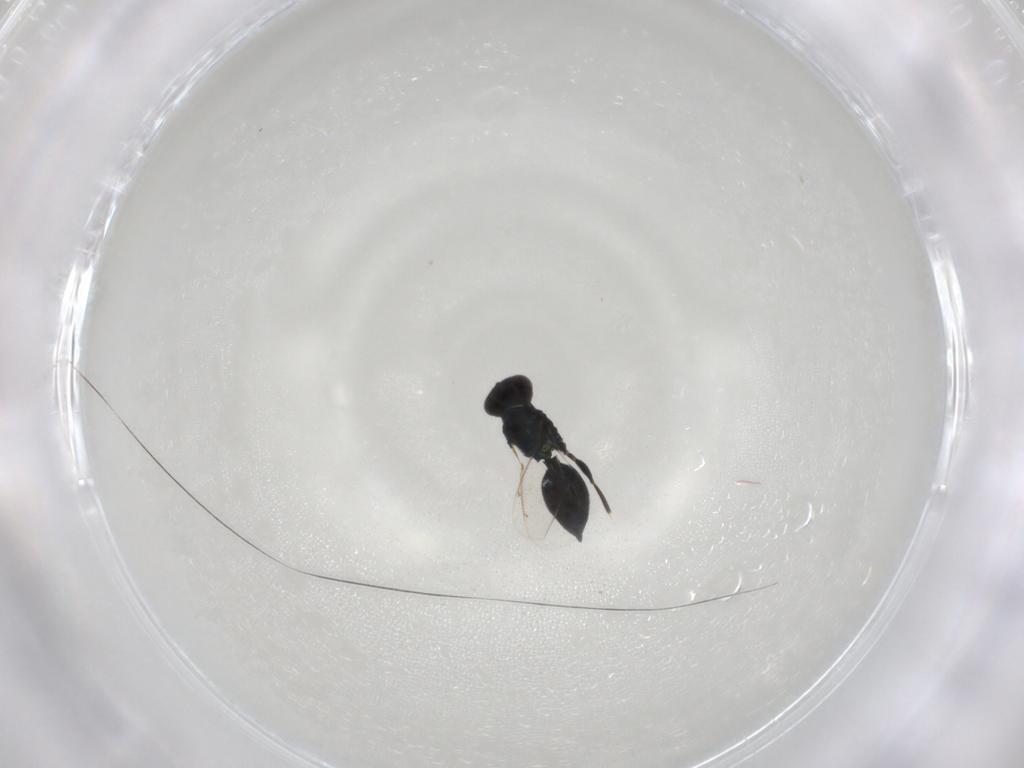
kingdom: Animalia
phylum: Arthropoda
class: Insecta
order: Hymenoptera
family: Eulophidae
